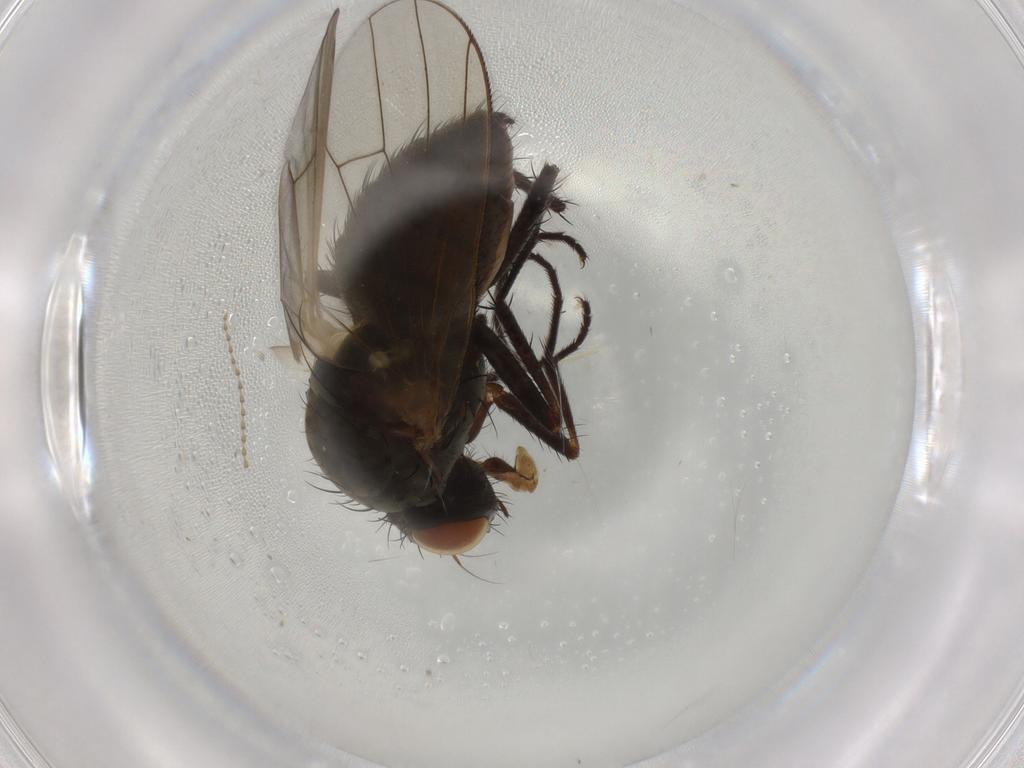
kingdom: Animalia
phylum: Arthropoda
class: Insecta
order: Diptera
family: Anthomyiidae
